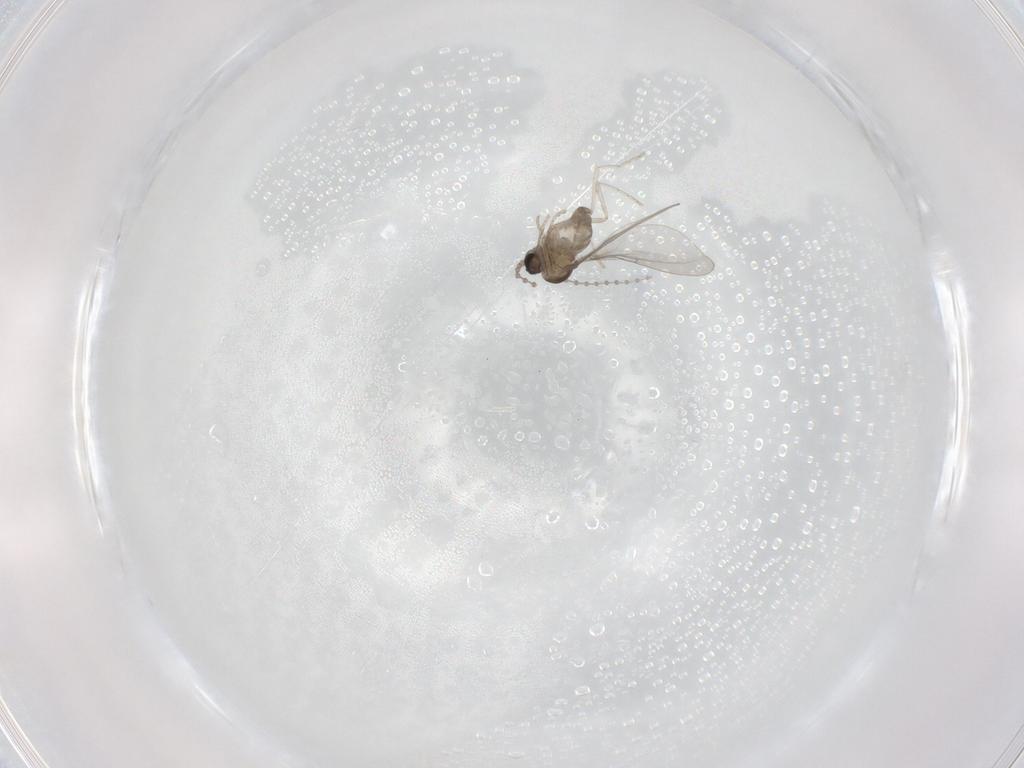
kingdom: Animalia
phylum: Arthropoda
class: Insecta
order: Diptera
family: Cecidomyiidae
